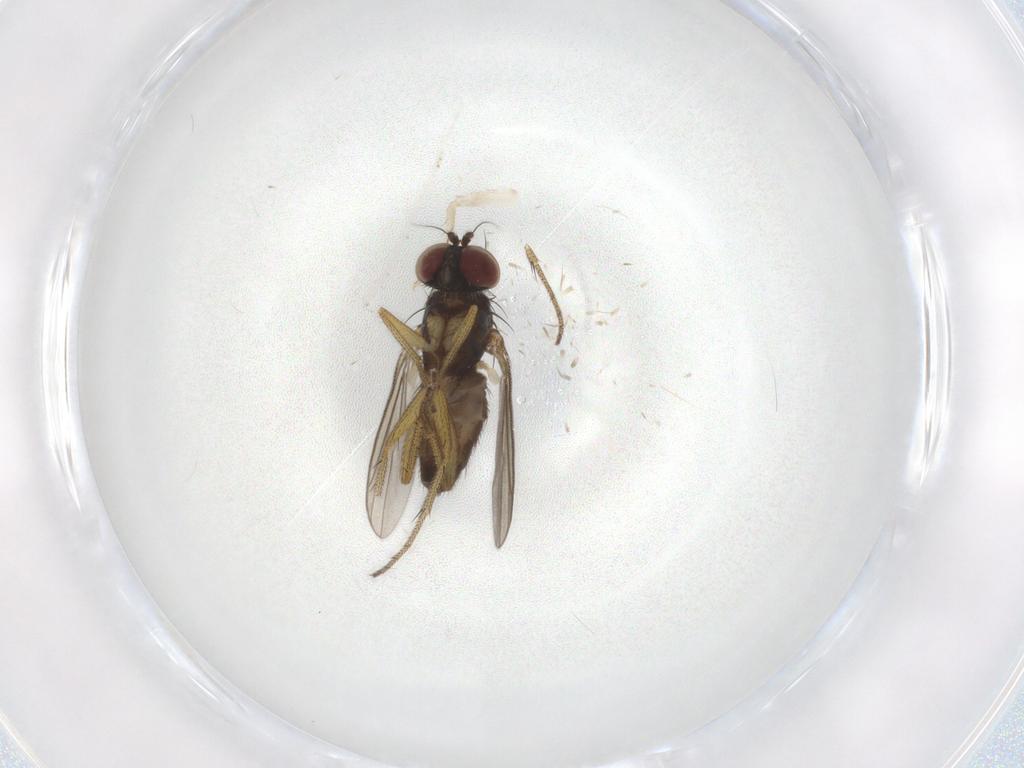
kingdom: Animalia
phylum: Arthropoda
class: Insecta
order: Diptera
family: Cecidomyiidae
